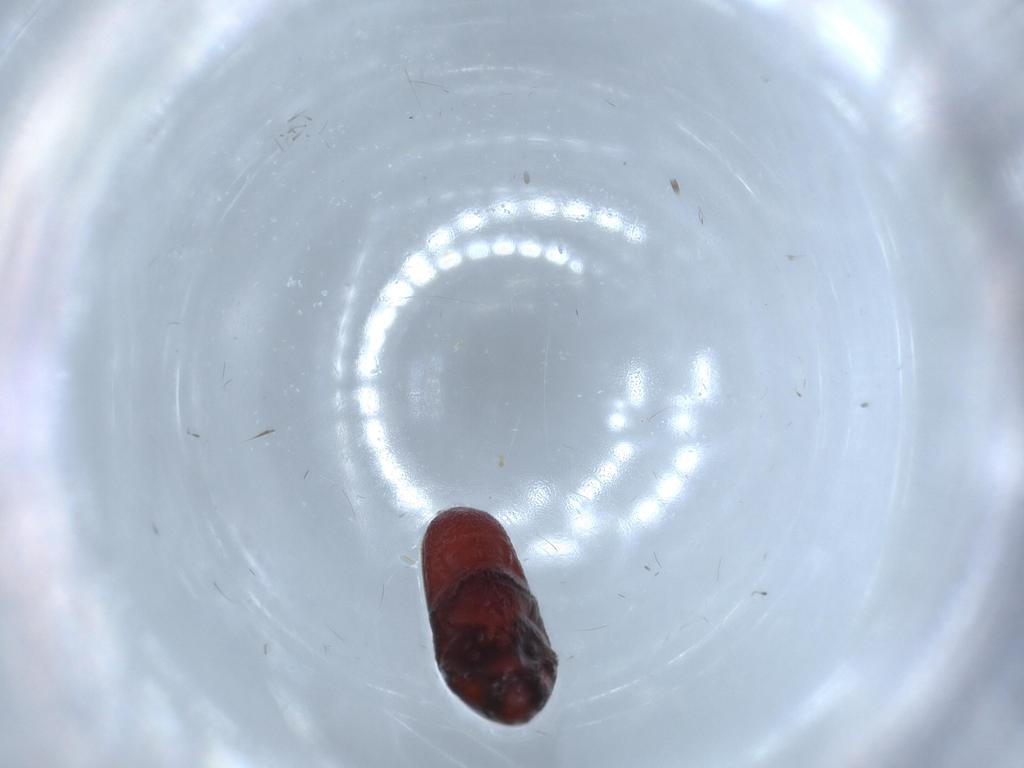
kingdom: Animalia
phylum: Arthropoda
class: Insecta
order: Coleoptera
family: Throscidae
